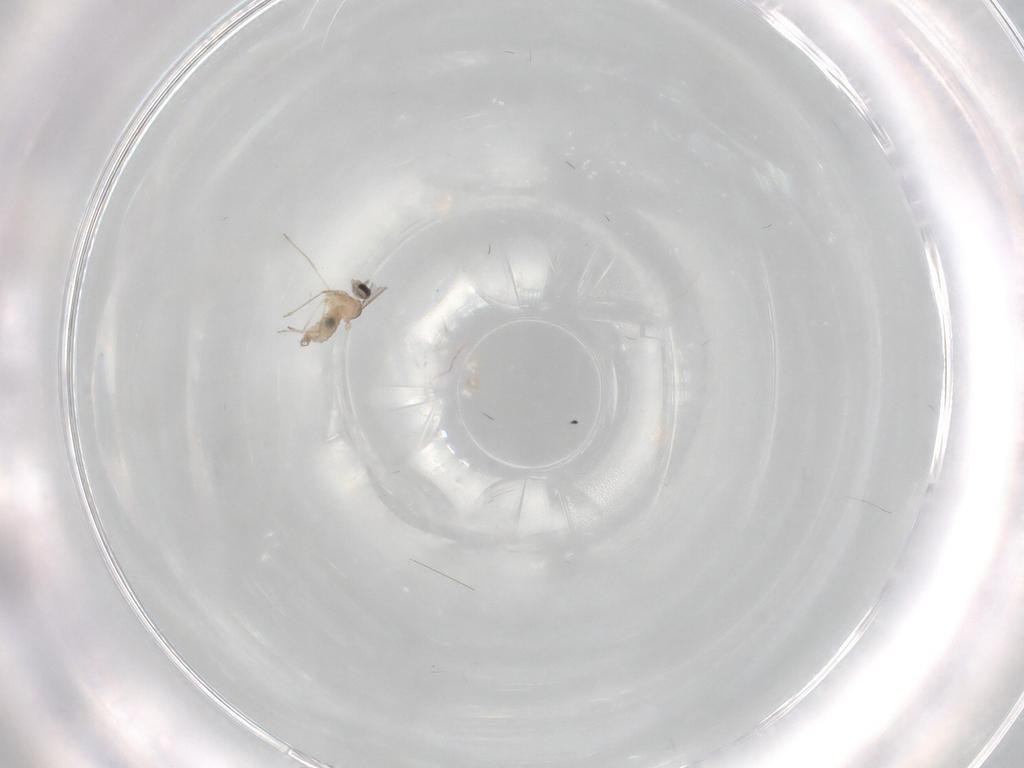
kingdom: Animalia
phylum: Arthropoda
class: Insecta
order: Diptera
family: Cecidomyiidae
